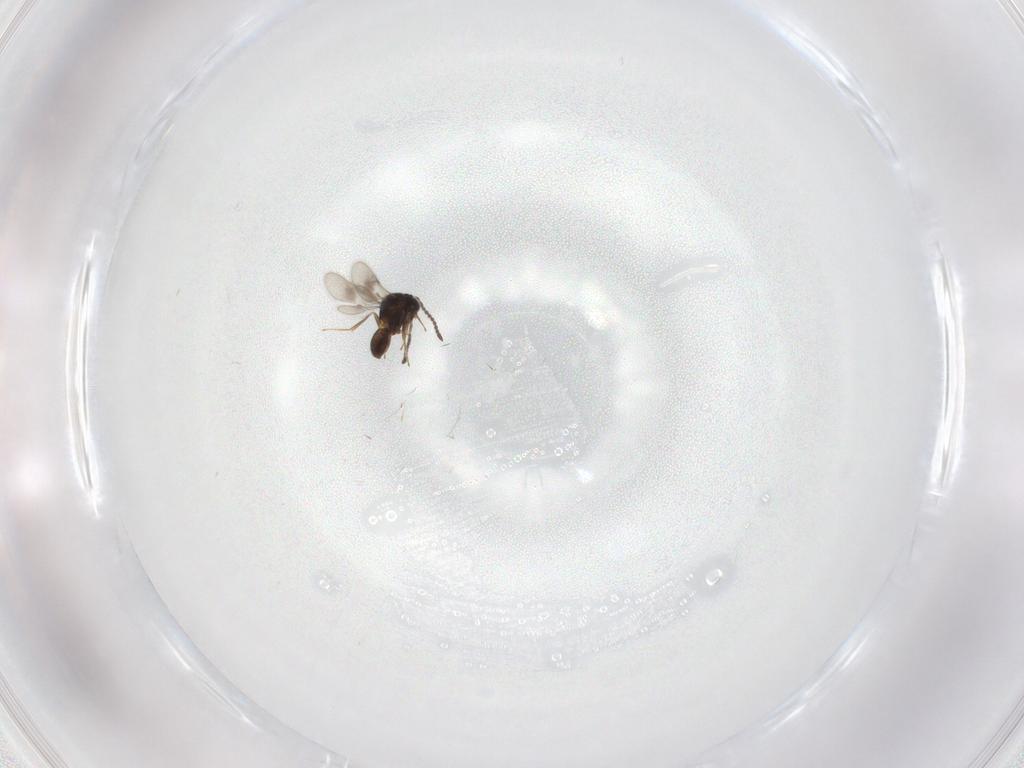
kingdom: Animalia
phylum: Arthropoda
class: Insecta
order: Hymenoptera
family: Scelionidae
